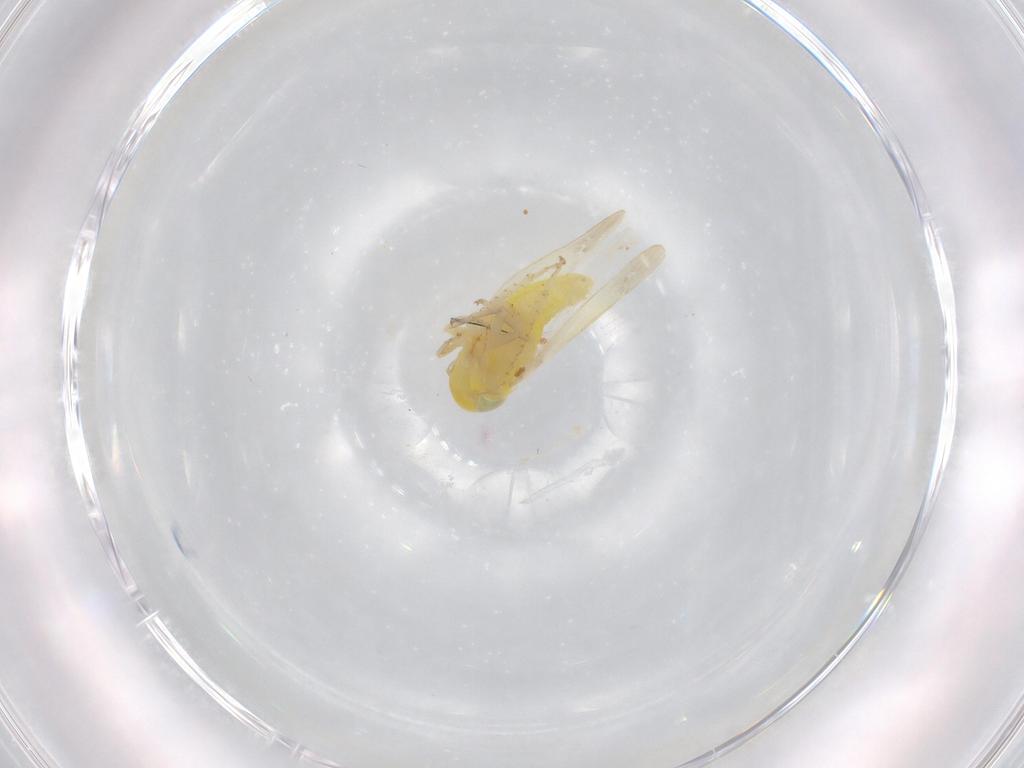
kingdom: Animalia
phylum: Arthropoda
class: Insecta
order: Hemiptera
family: Cicadellidae
